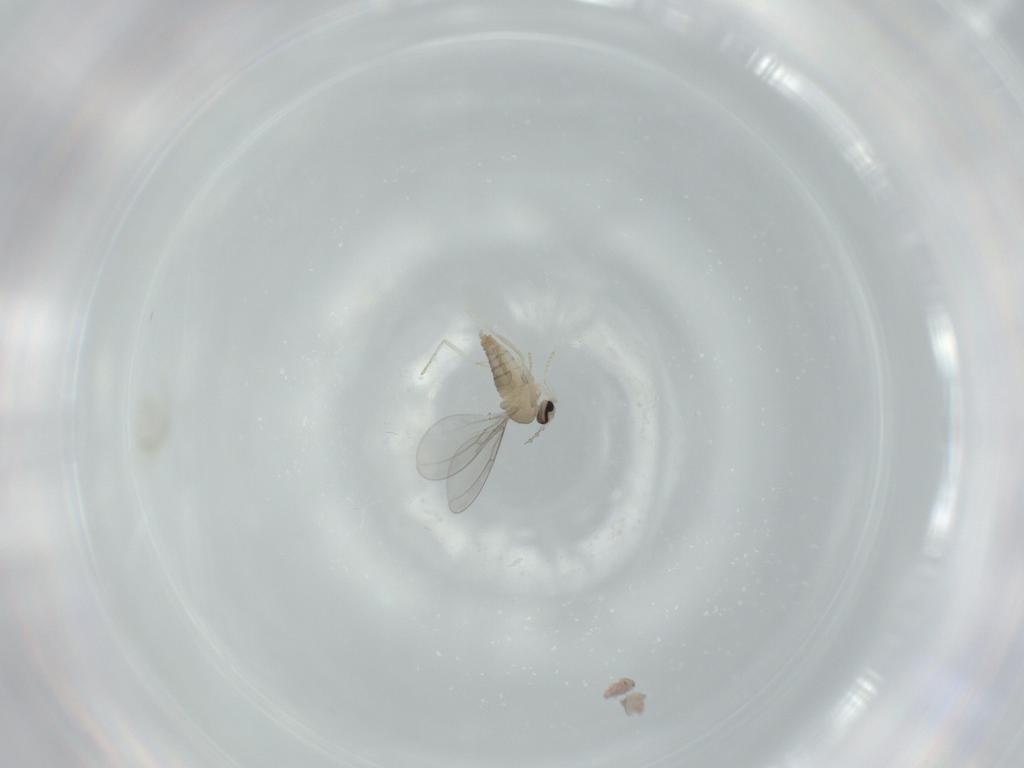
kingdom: Animalia
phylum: Arthropoda
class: Insecta
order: Diptera
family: Cecidomyiidae
